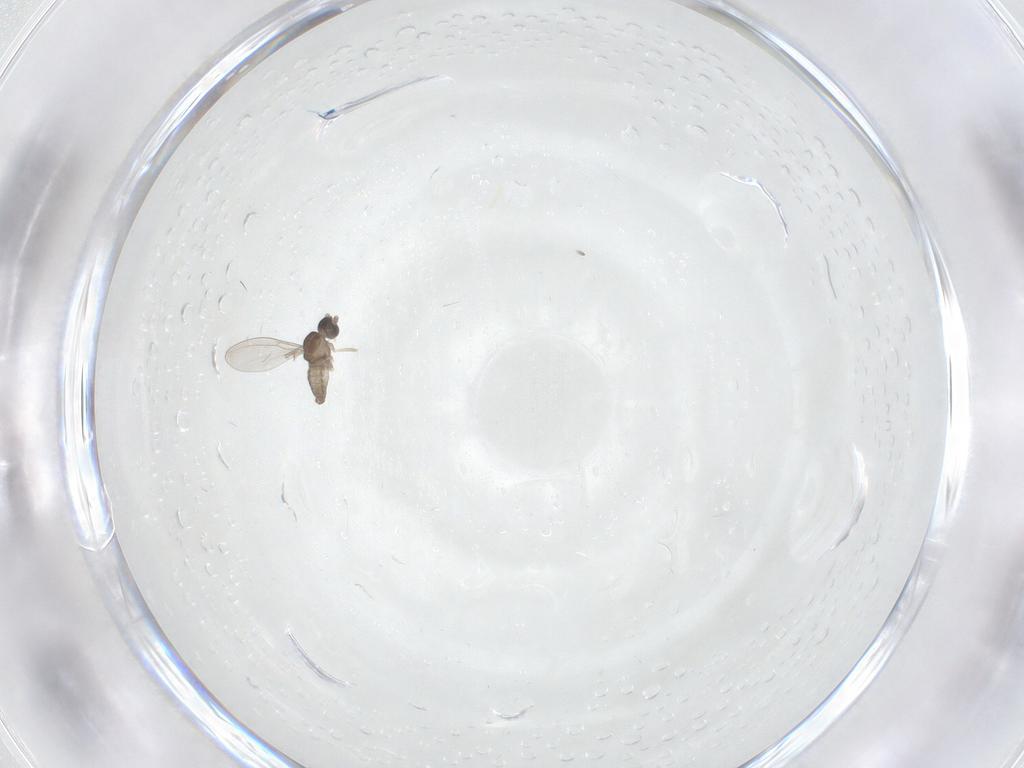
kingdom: Animalia
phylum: Arthropoda
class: Insecta
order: Diptera
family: Cecidomyiidae
